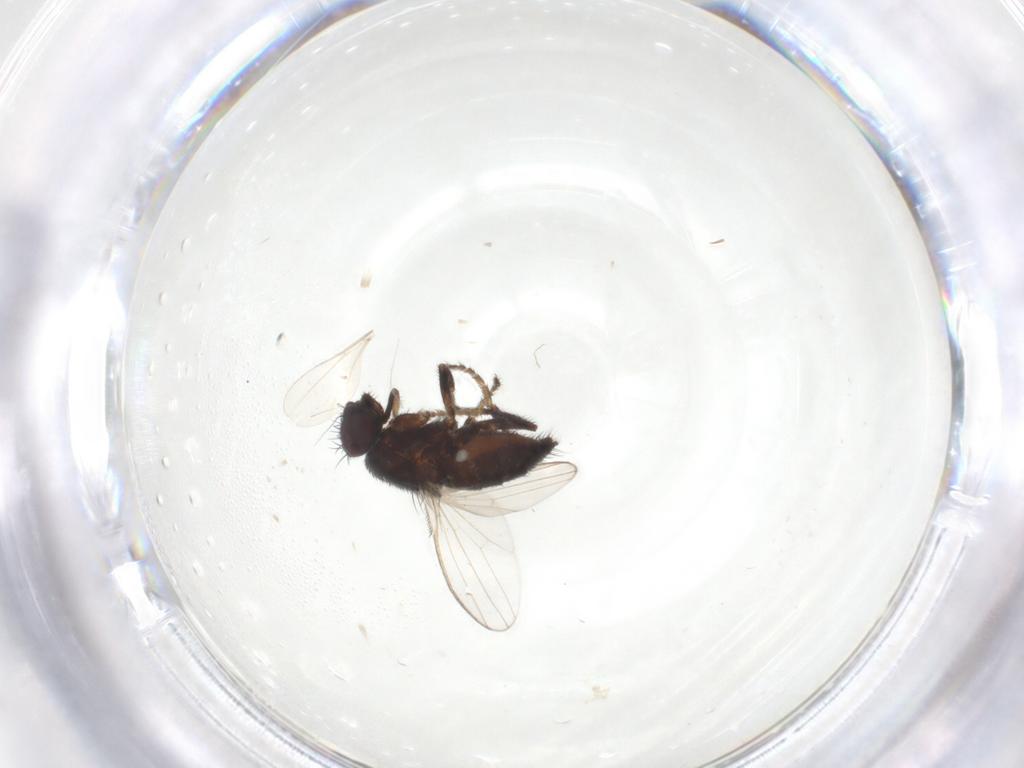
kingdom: Animalia
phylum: Arthropoda
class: Insecta
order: Diptera
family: Milichiidae
